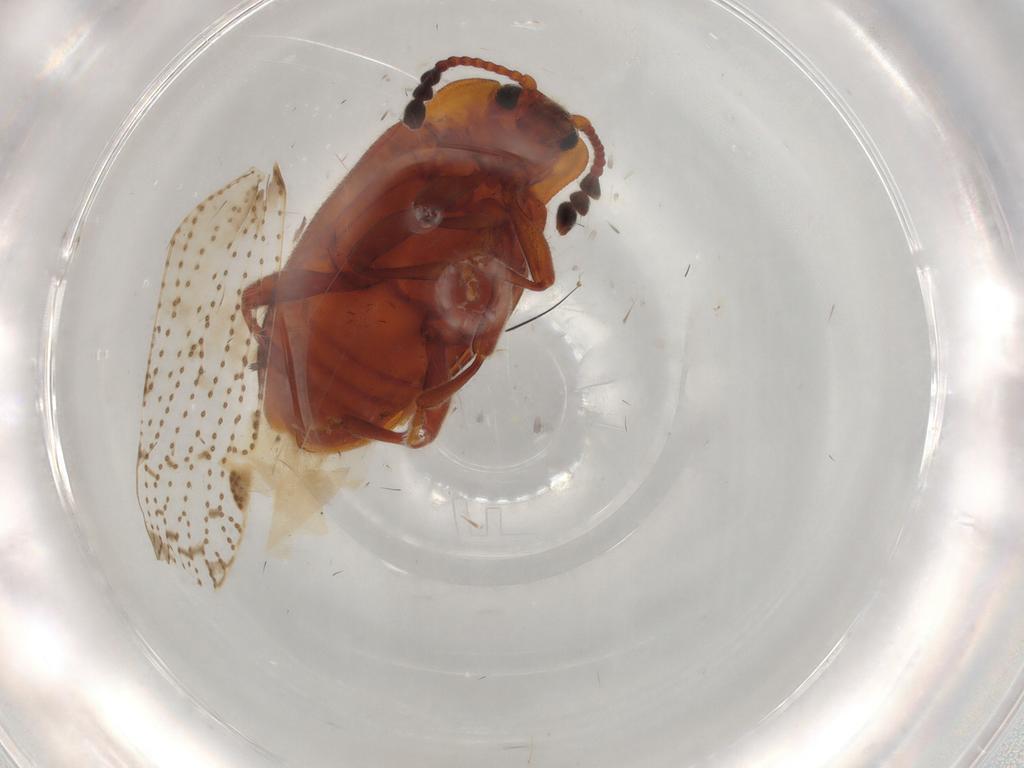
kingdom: Animalia
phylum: Arthropoda
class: Insecta
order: Coleoptera
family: Endomychidae
